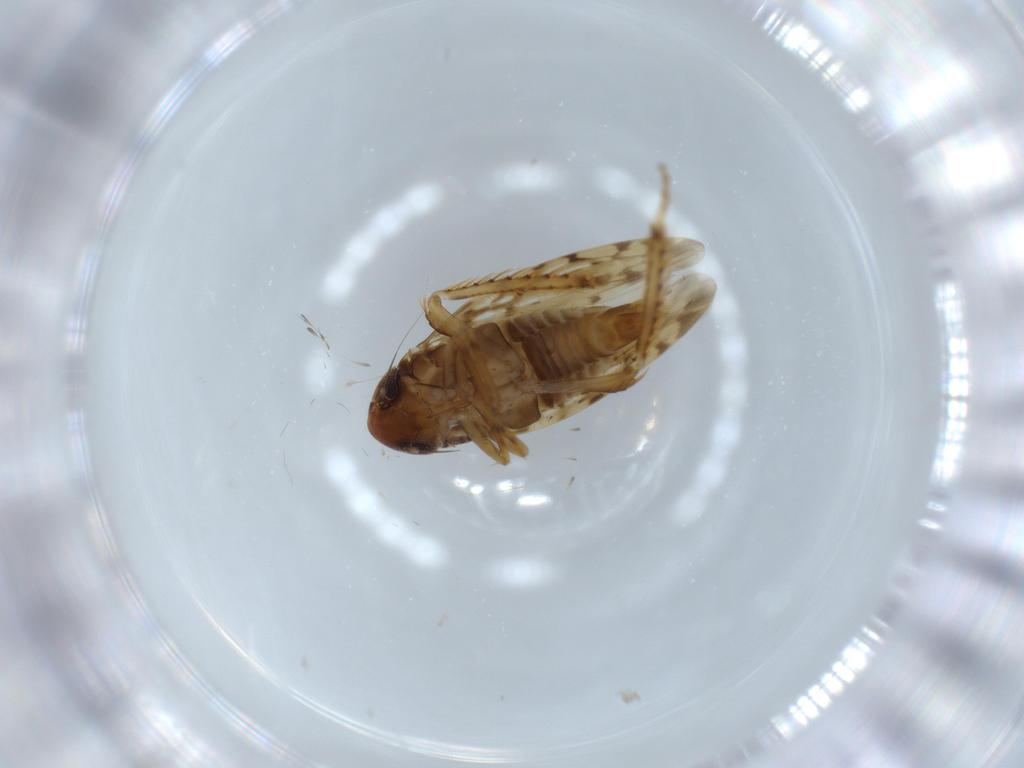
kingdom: Animalia
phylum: Arthropoda
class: Insecta
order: Hemiptera
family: Cicadellidae
